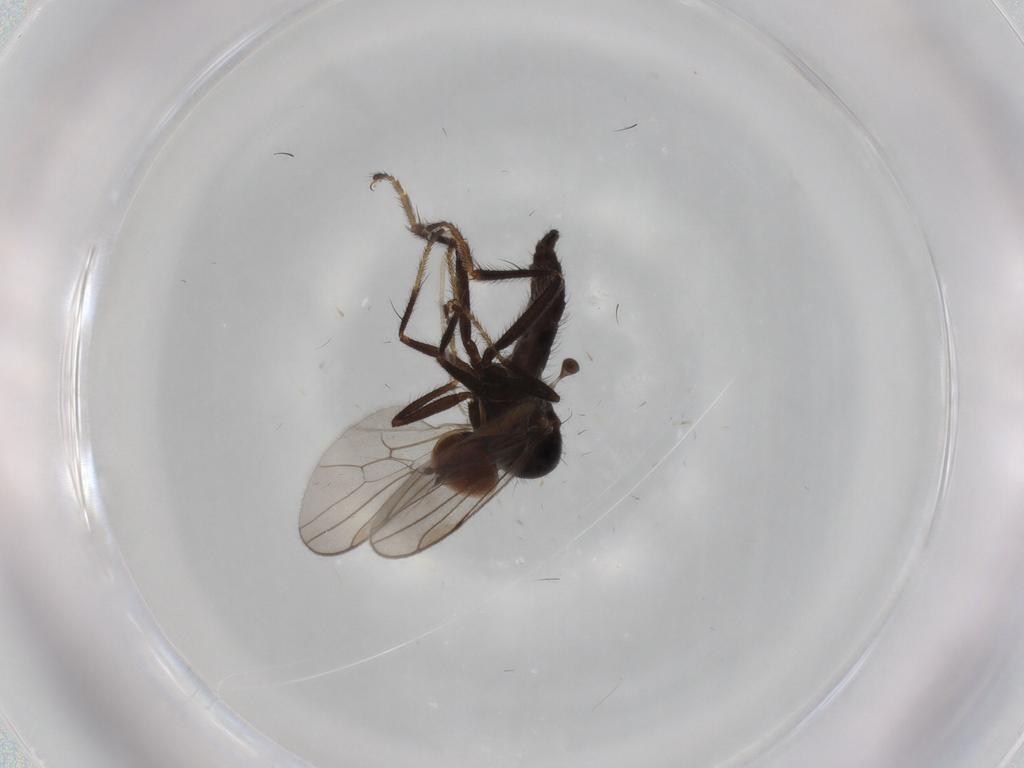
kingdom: Animalia
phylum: Arthropoda
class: Insecta
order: Diptera
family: Hybotidae
